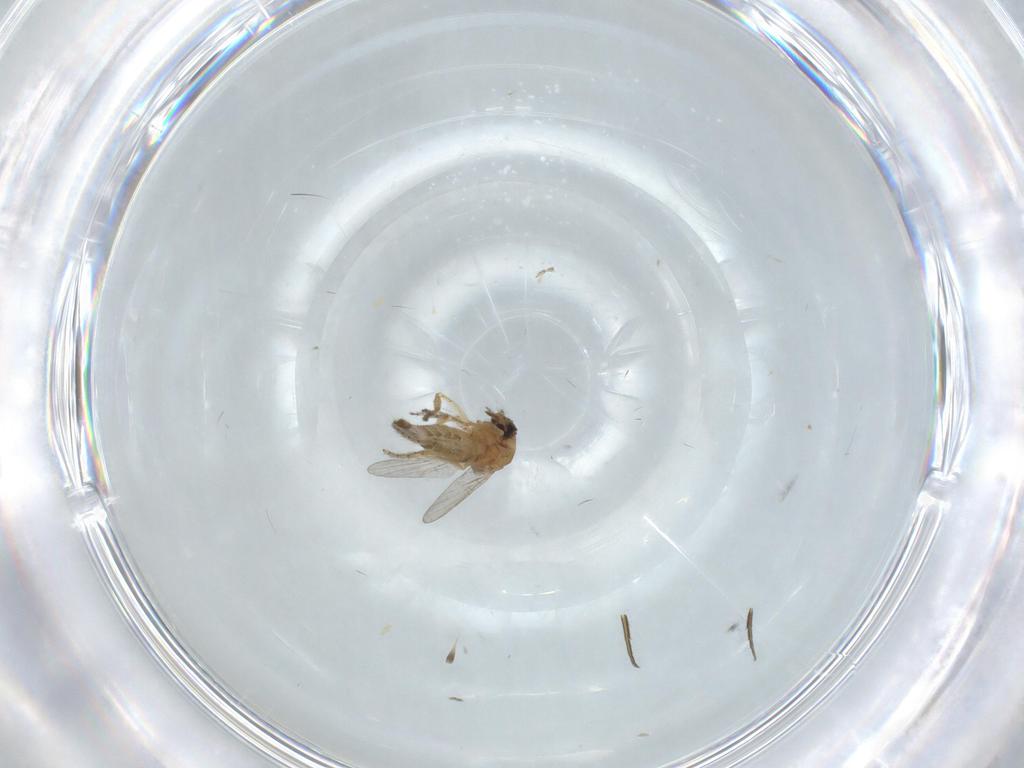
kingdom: Animalia
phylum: Arthropoda
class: Insecta
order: Diptera
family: Ceratopogonidae
